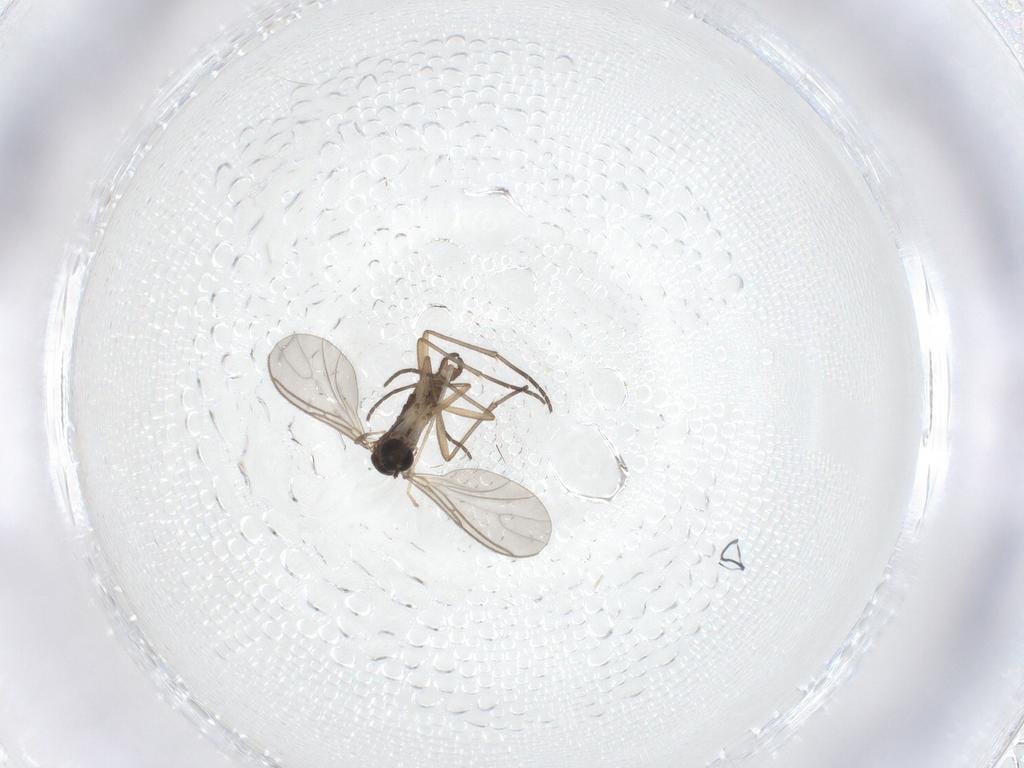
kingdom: Animalia
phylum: Arthropoda
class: Insecta
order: Diptera
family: Sciaridae
